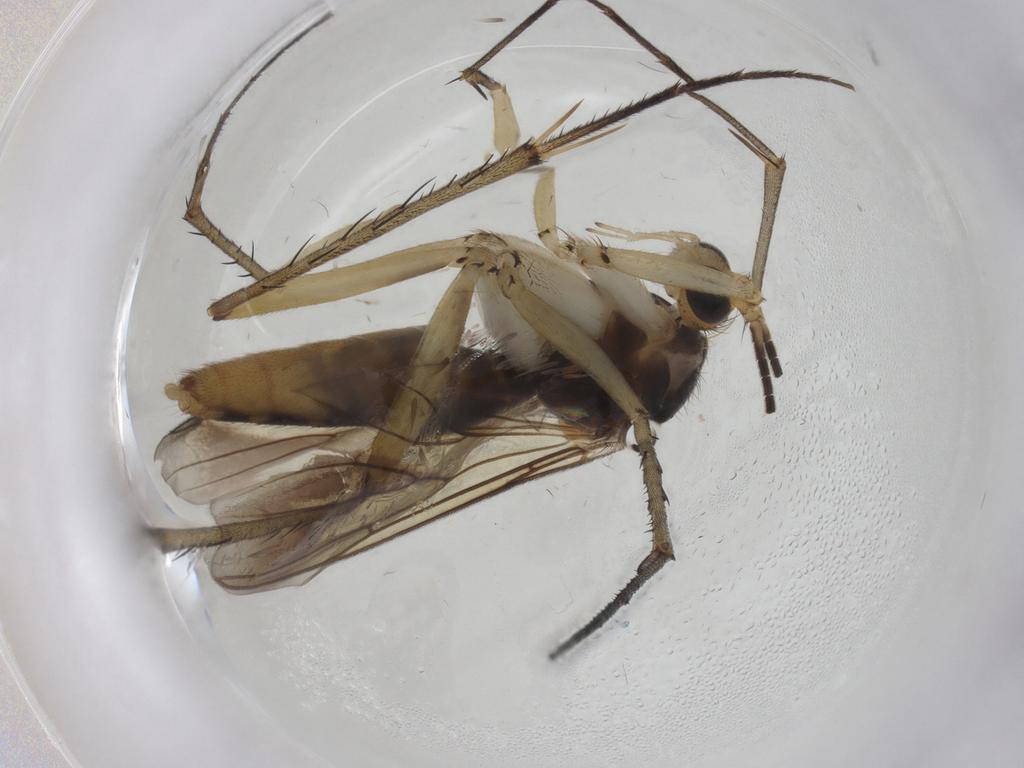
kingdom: Animalia
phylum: Arthropoda
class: Insecta
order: Diptera
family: Mycetophilidae
